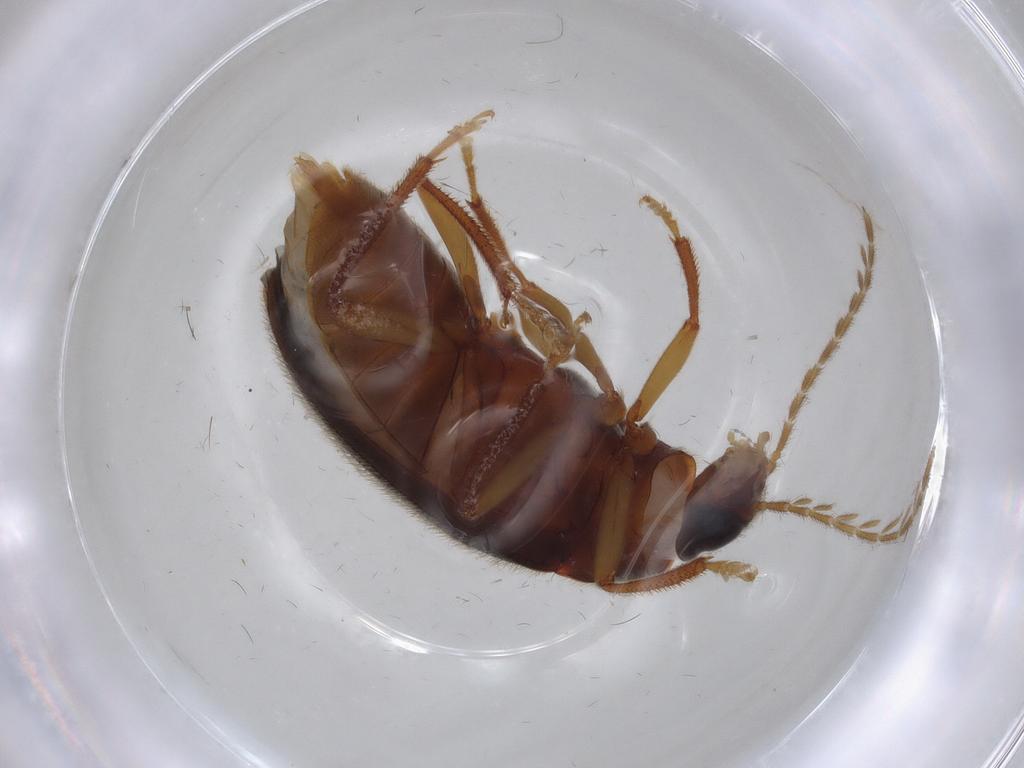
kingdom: Animalia
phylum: Arthropoda
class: Insecta
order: Coleoptera
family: Ptilodactylidae
